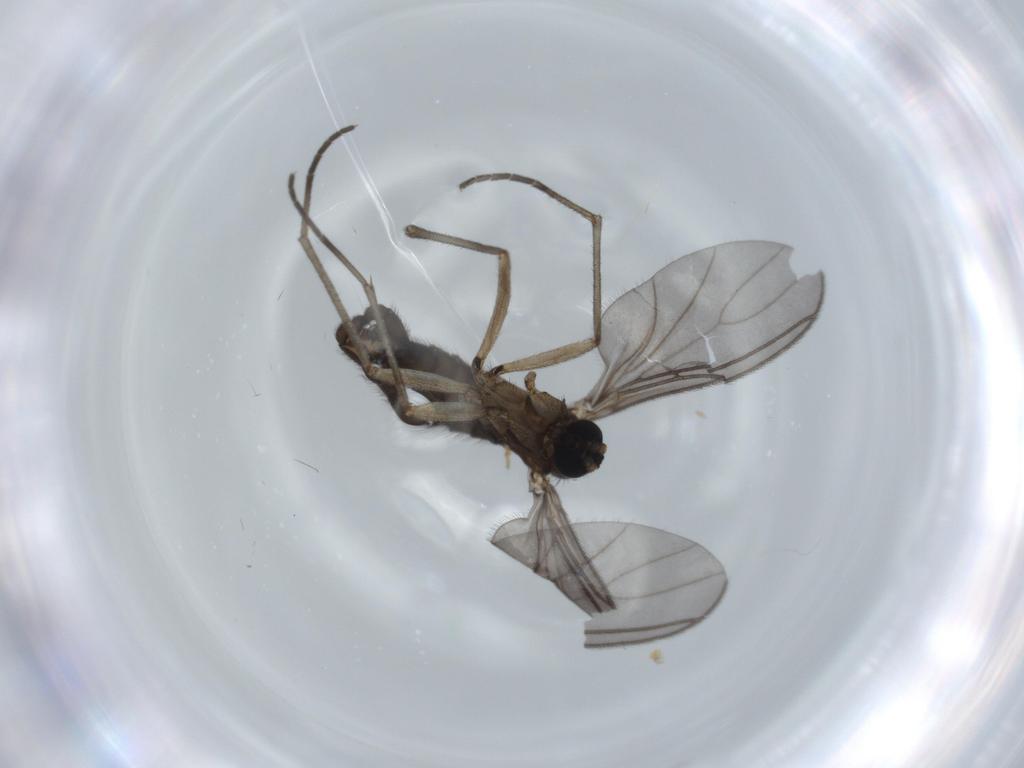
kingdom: Animalia
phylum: Arthropoda
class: Insecta
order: Diptera
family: Sciaridae
